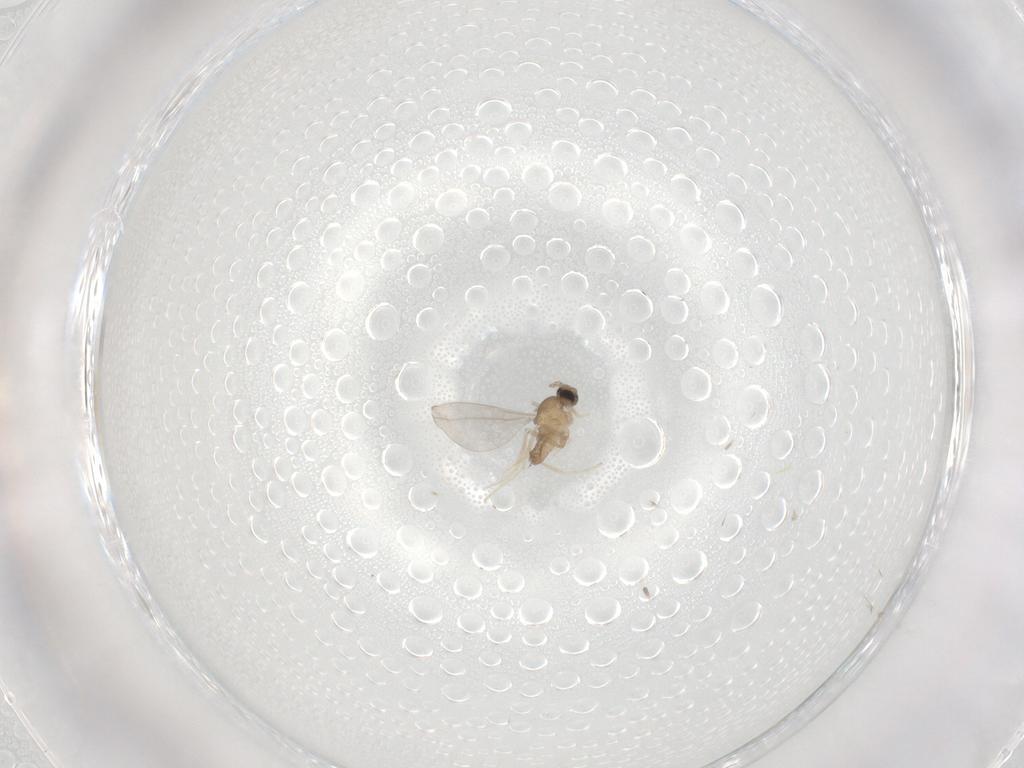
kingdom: Animalia
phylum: Arthropoda
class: Insecta
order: Diptera
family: Cecidomyiidae
